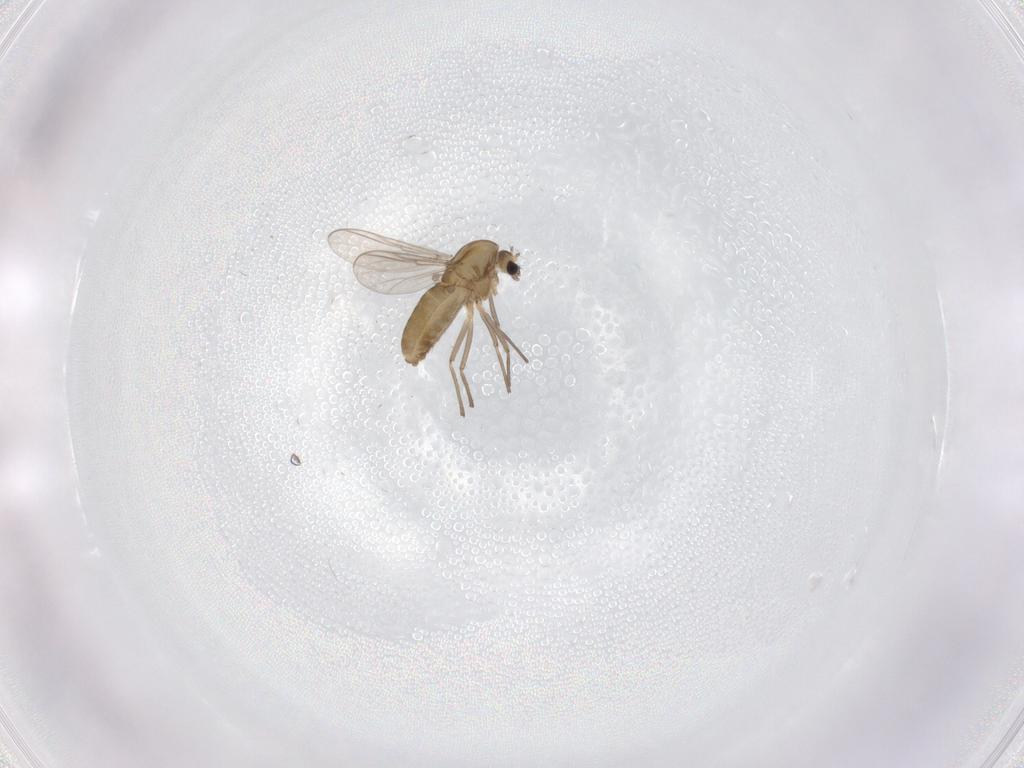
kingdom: Animalia
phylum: Arthropoda
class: Insecta
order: Diptera
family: Chironomidae
